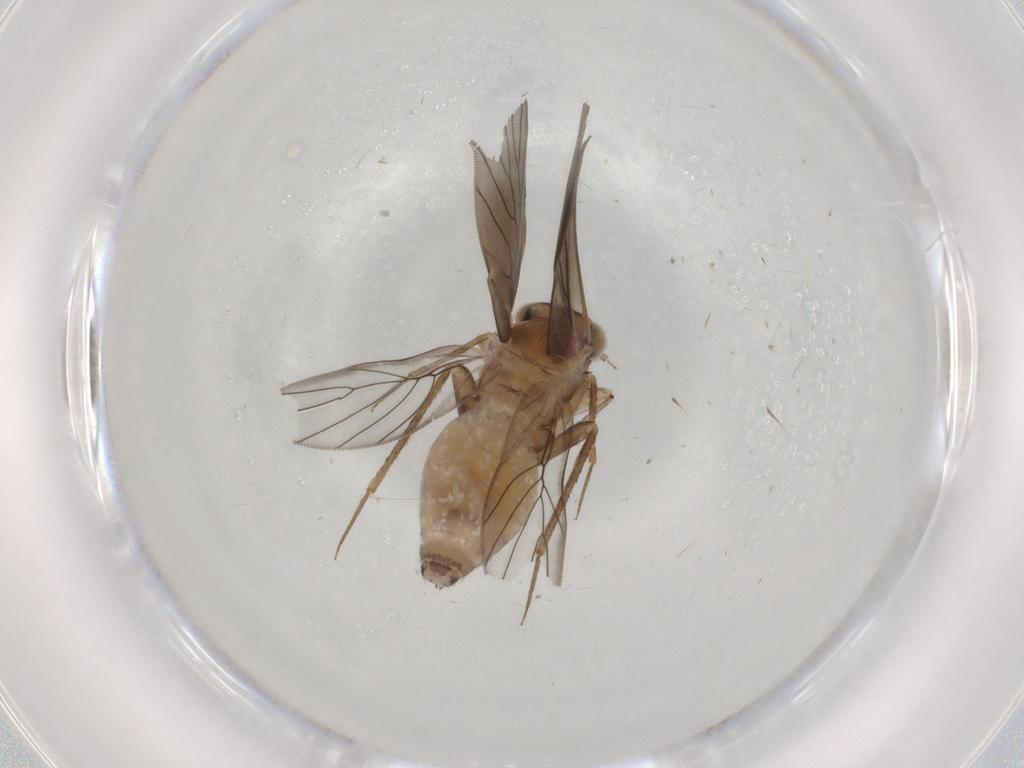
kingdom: Animalia
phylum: Arthropoda
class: Insecta
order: Psocodea
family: Lepidopsocidae
